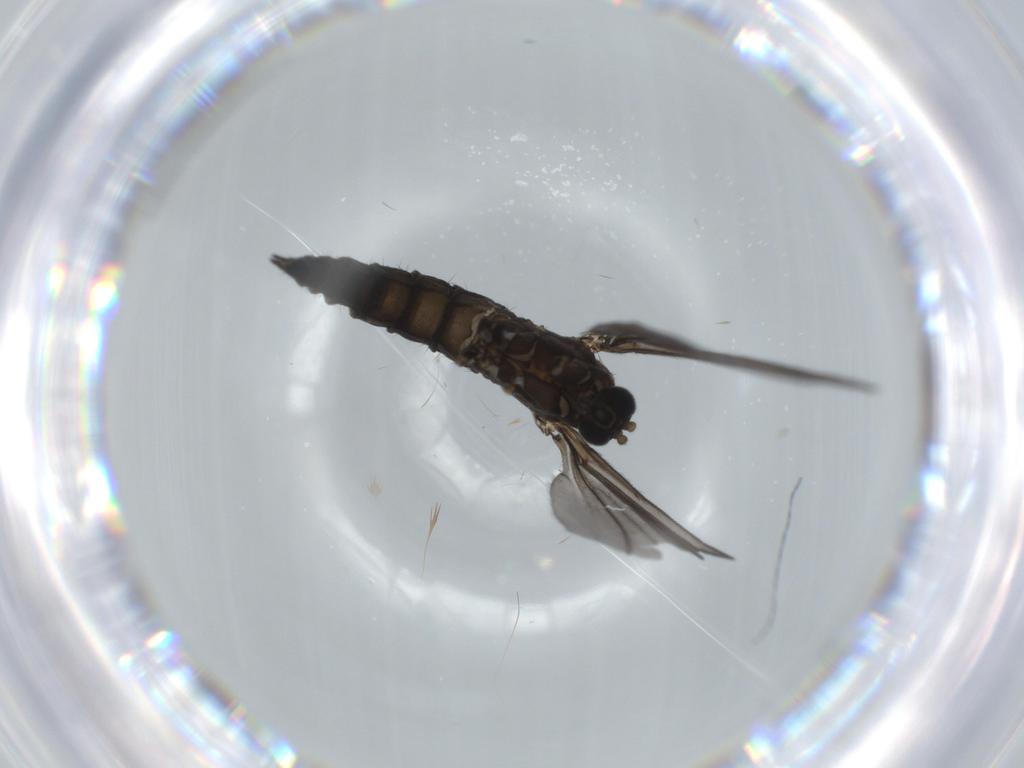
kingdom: Animalia
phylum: Arthropoda
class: Insecta
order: Diptera
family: Sciaridae
